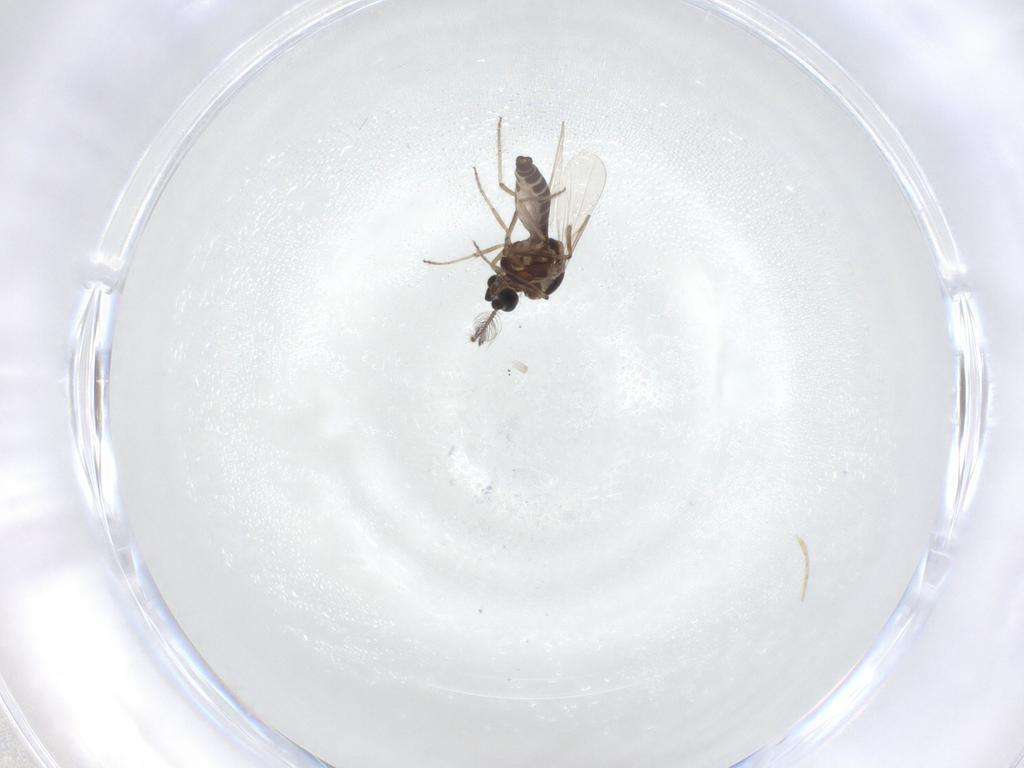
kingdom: Animalia
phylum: Arthropoda
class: Insecta
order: Diptera
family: Ceratopogonidae
